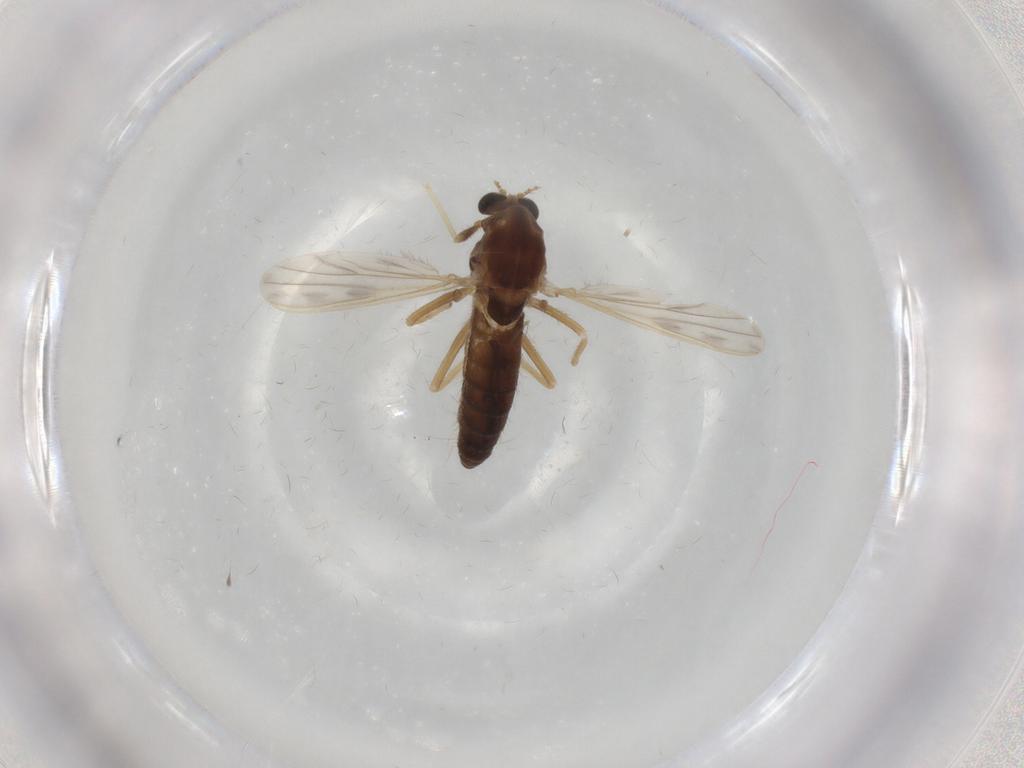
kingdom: Animalia
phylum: Arthropoda
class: Insecta
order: Diptera
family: Chironomidae
